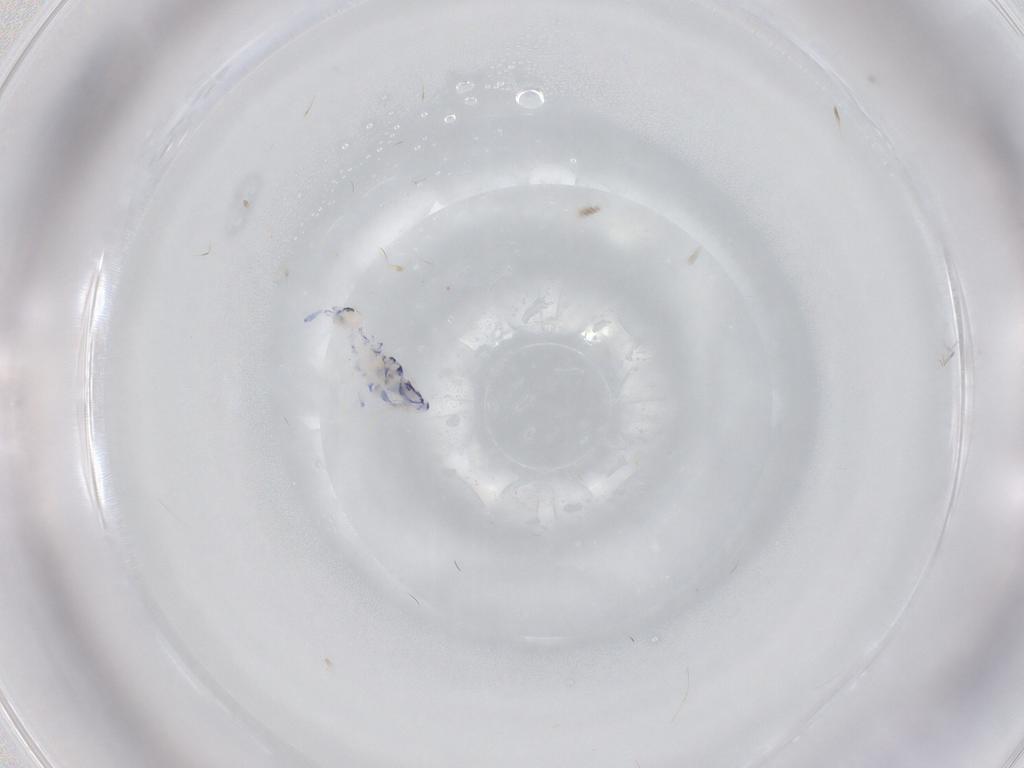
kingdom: Animalia
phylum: Arthropoda
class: Collembola
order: Entomobryomorpha
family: Entomobryidae
